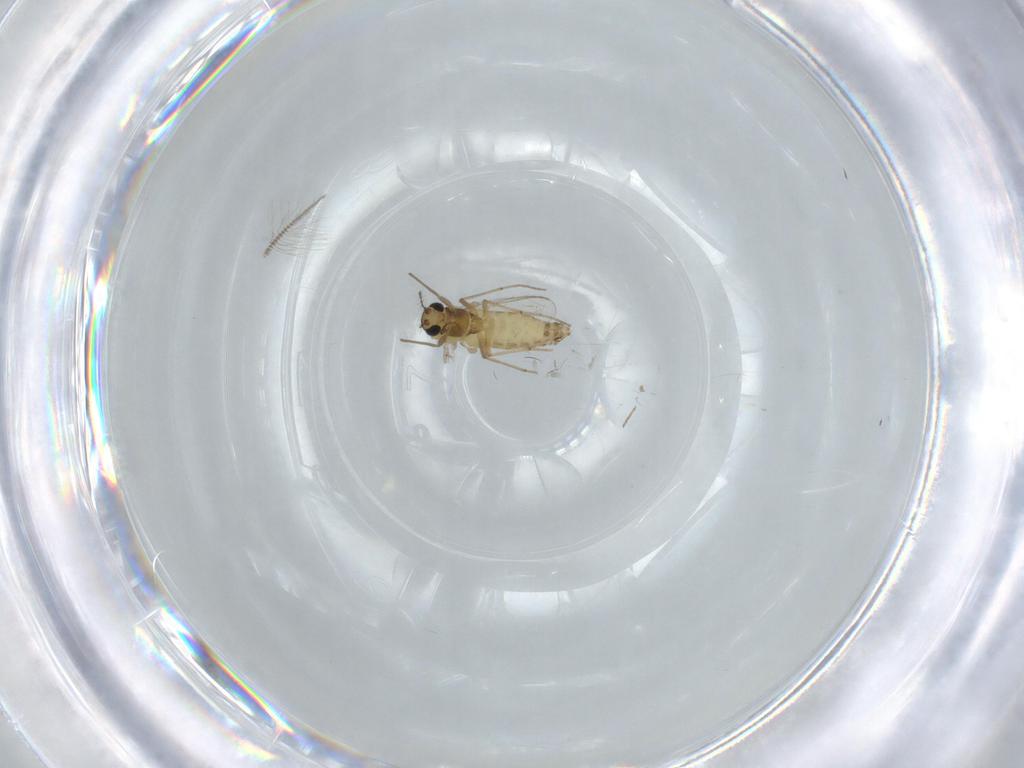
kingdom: Animalia
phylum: Arthropoda
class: Insecta
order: Diptera
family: Chironomidae
